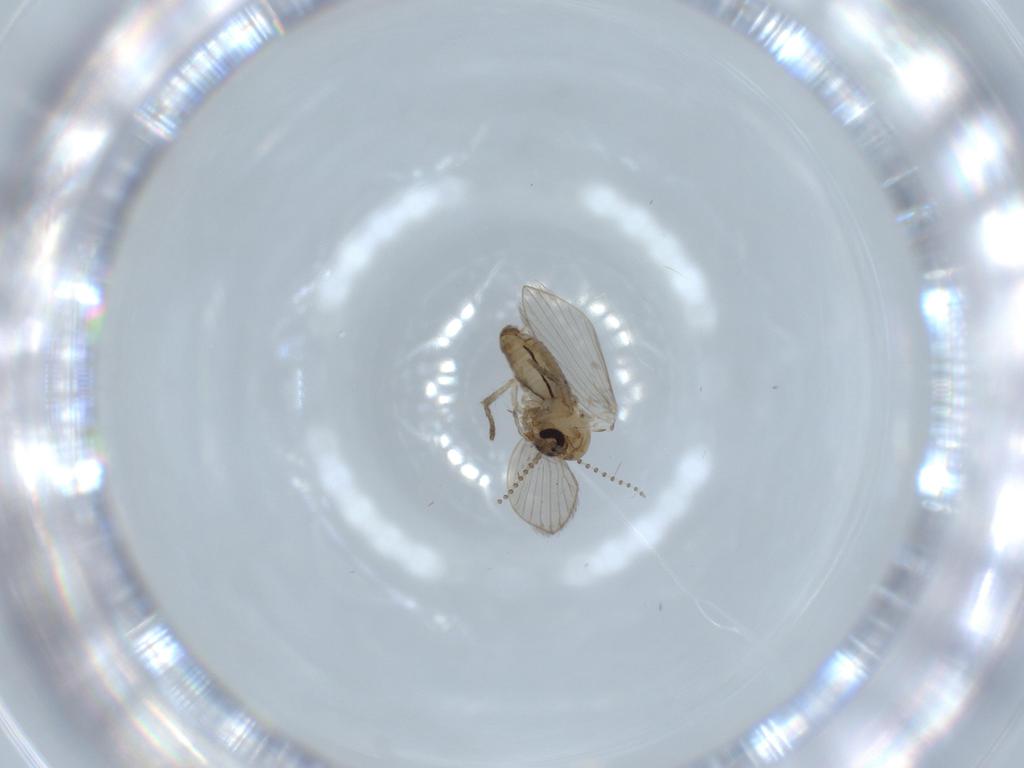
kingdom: Animalia
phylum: Arthropoda
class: Insecta
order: Diptera
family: Psychodidae
